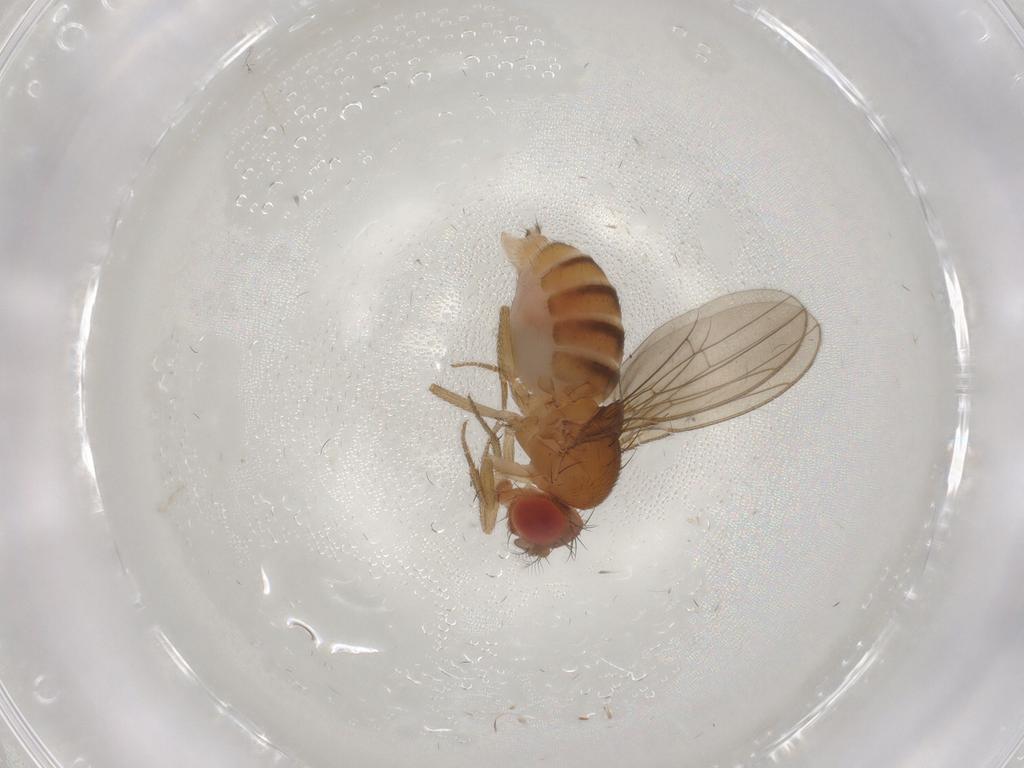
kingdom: Animalia
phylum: Arthropoda
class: Insecta
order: Diptera
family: Drosophilidae
